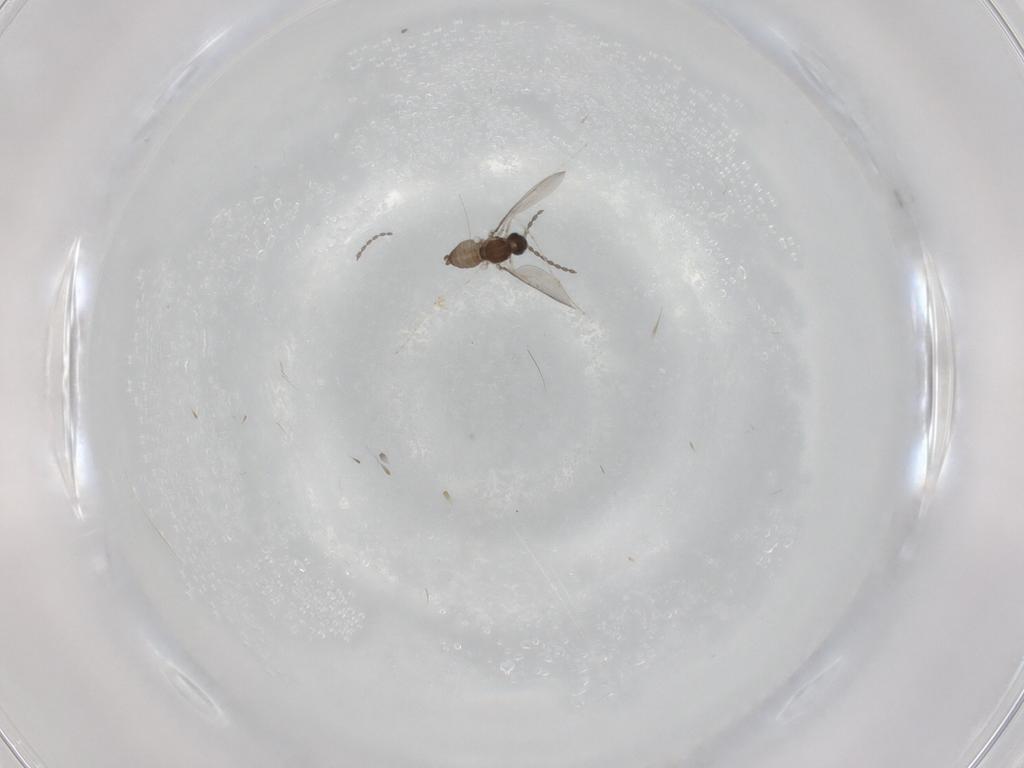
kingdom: Animalia
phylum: Arthropoda
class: Insecta
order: Diptera
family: Cecidomyiidae
